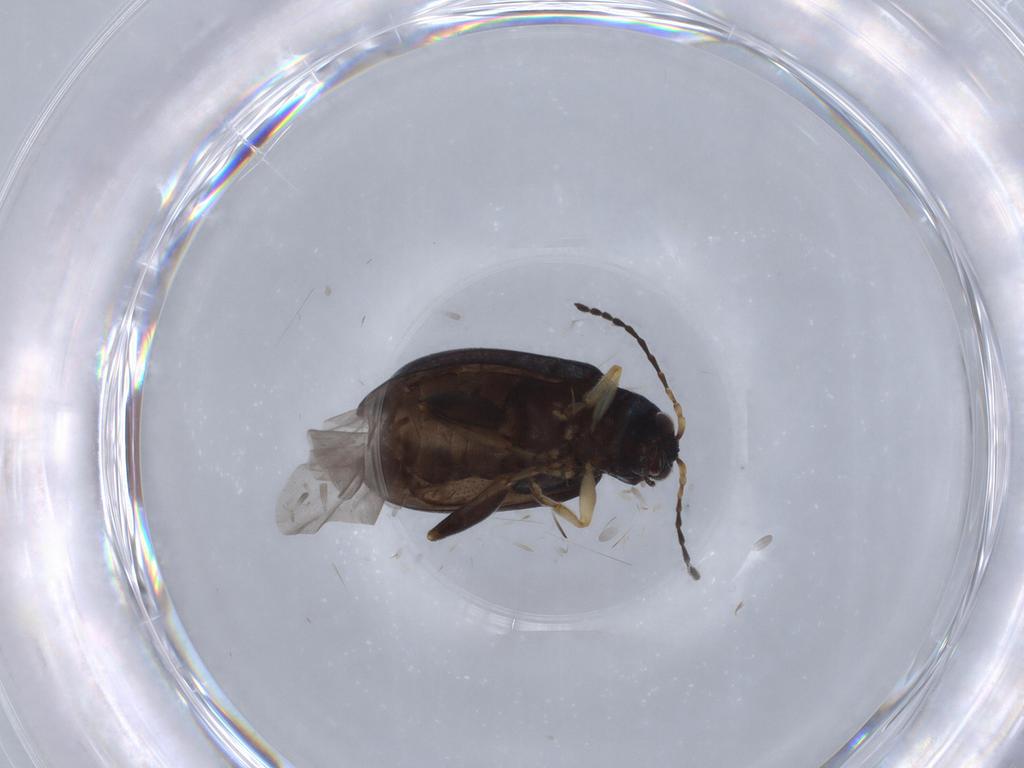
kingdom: Animalia
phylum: Arthropoda
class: Insecta
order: Coleoptera
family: Chrysomelidae
